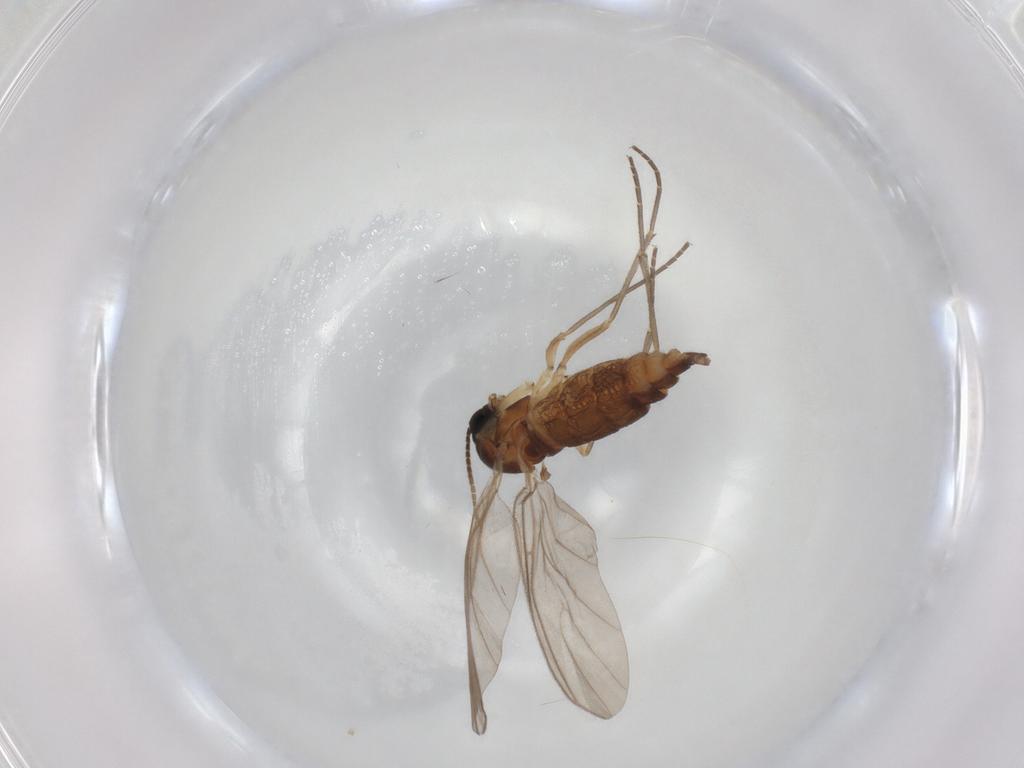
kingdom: Animalia
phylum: Arthropoda
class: Insecta
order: Diptera
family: Sciaridae
